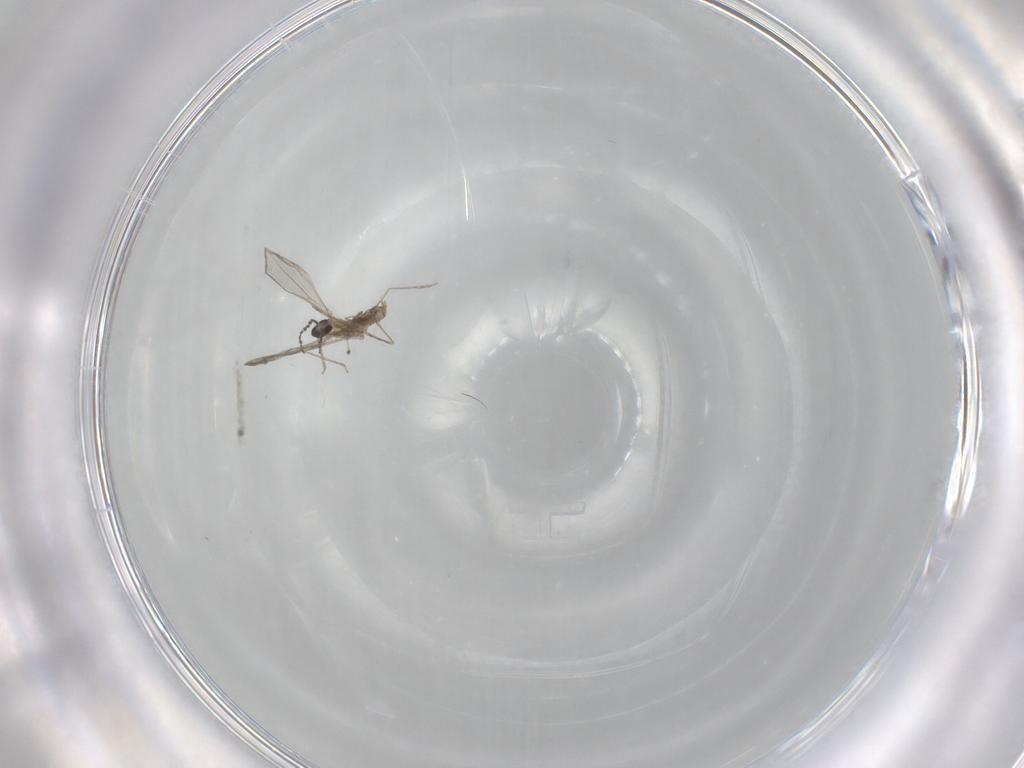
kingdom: Animalia
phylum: Arthropoda
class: Insecta
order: Diptera
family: Cecidomyiidae
